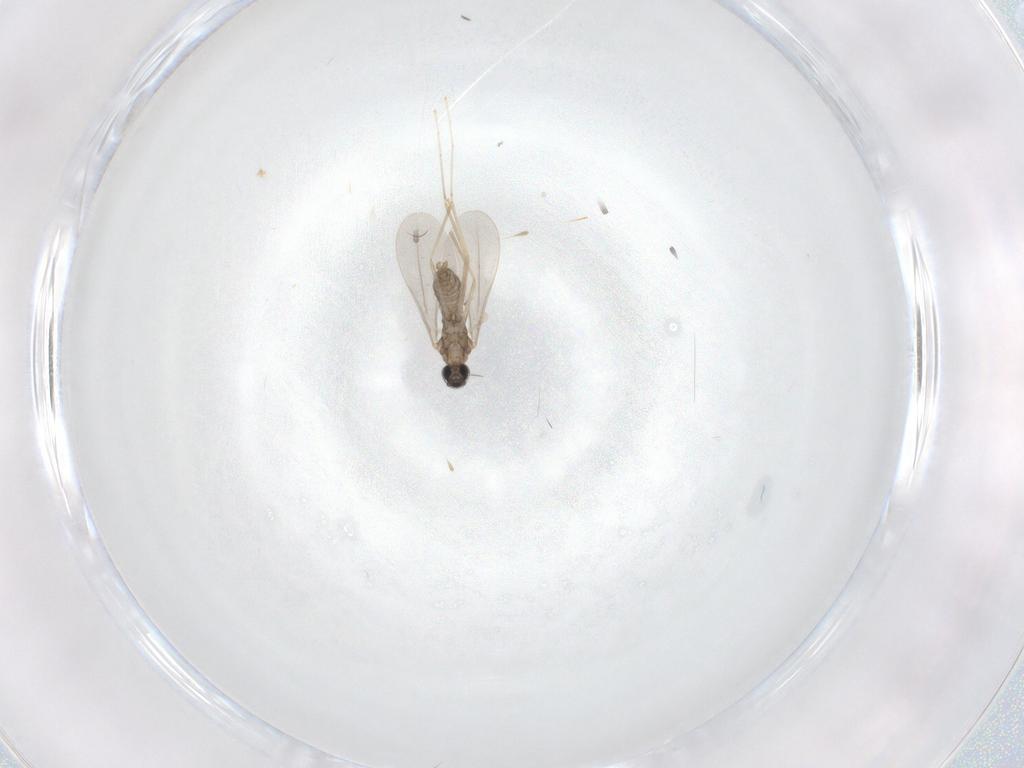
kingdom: Animalia
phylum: Arthropoda
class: Insecta
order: Diptera
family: Cecidomyiidae
